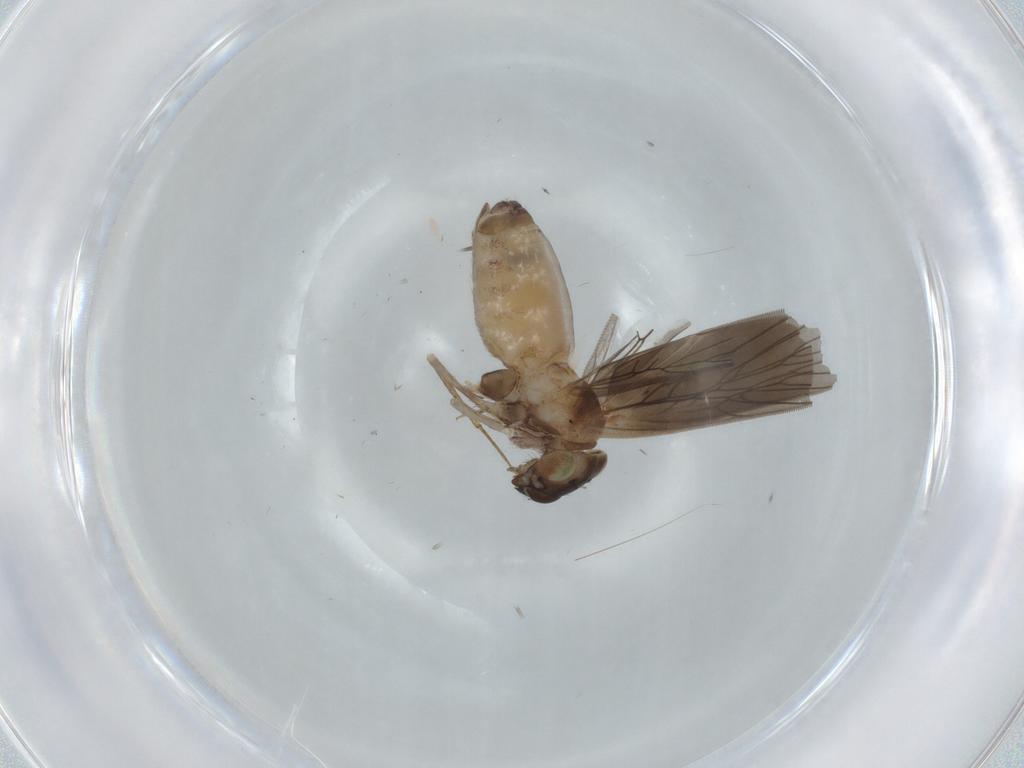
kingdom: Animalia
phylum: Arthropoda
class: Insecta
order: Psocodea
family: Lepidopsocidae
